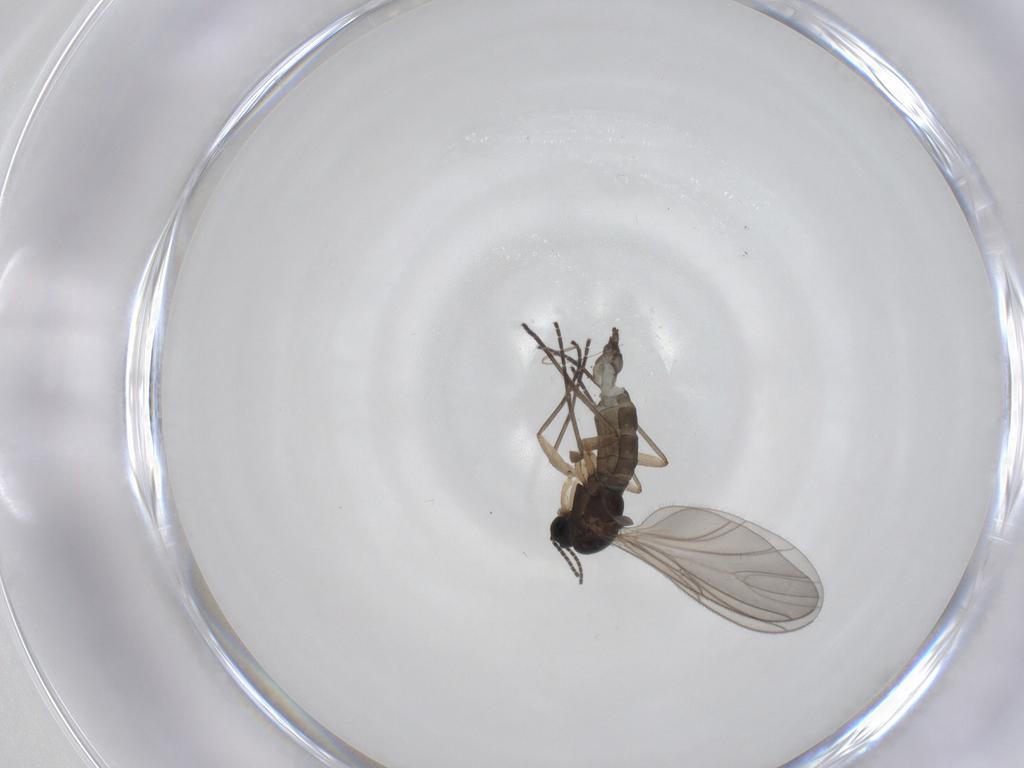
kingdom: Animalia
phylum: Arthropoda
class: Insecta
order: Diptera
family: Sciaridae
